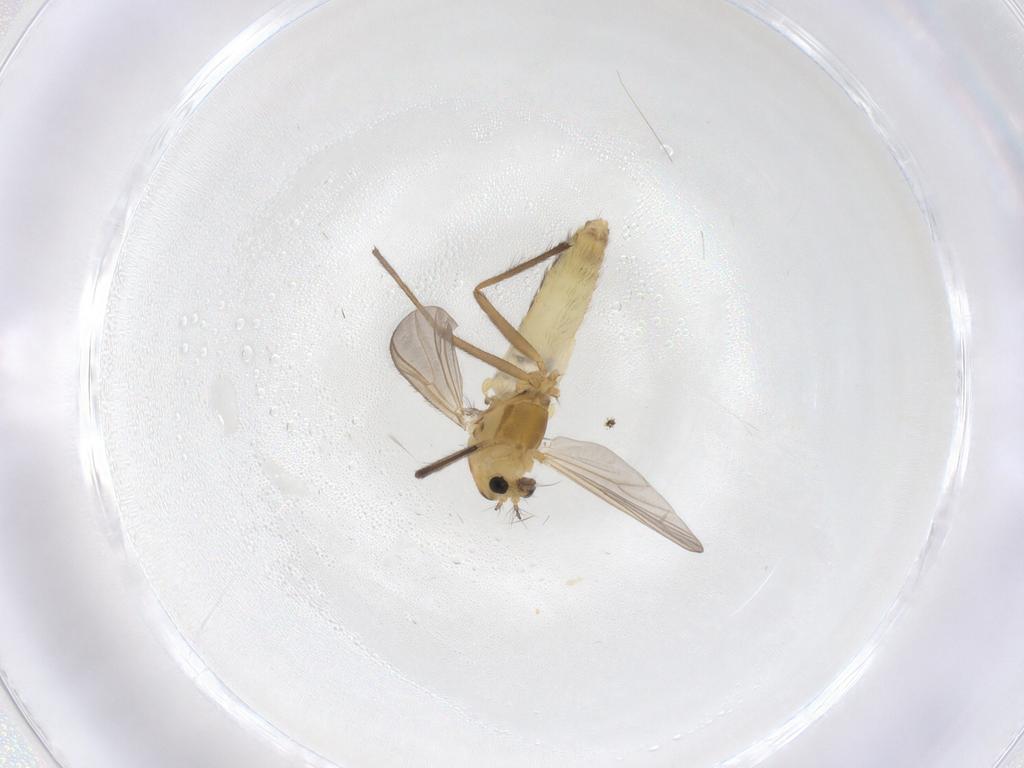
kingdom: Animalia
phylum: Arthropoda
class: Insecta
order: Diptera
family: Chironomidae
